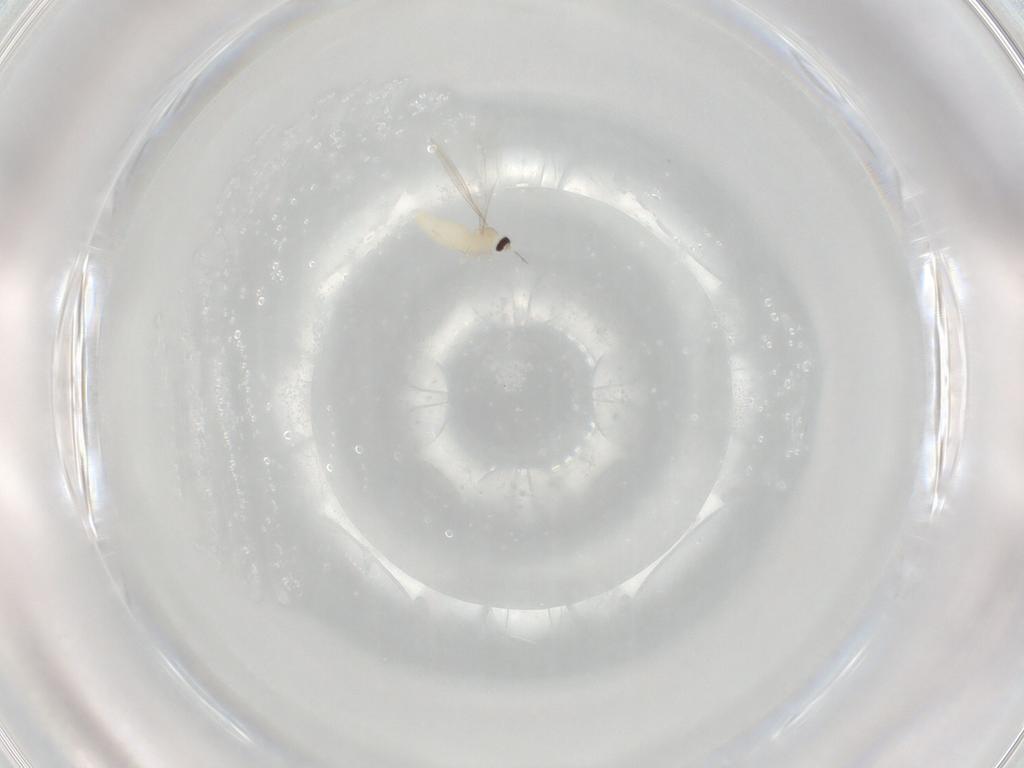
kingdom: Animalia
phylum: Arthropoda
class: Insecta
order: Diptera
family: Cecidomyiidae
